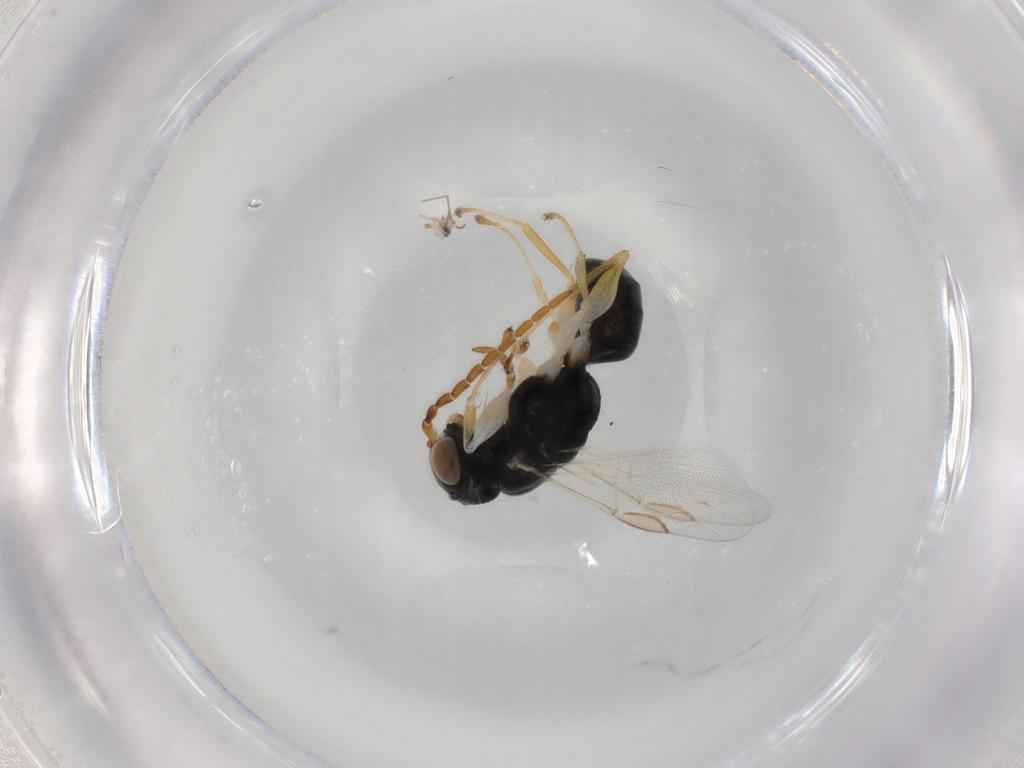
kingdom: Animalia
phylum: Arthropoda
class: Insecta
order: Hymenoptera
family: Dryinidae
